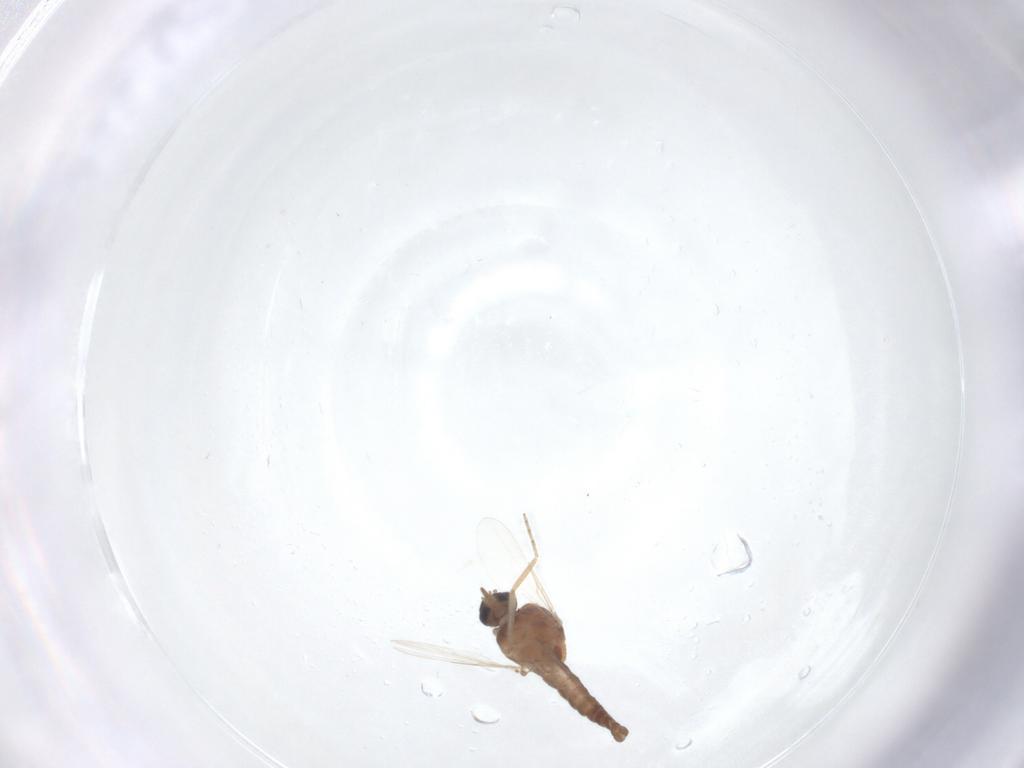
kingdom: Animalia
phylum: Arthropoda
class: Insecta
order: Diptera
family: Ceratopogonidae
